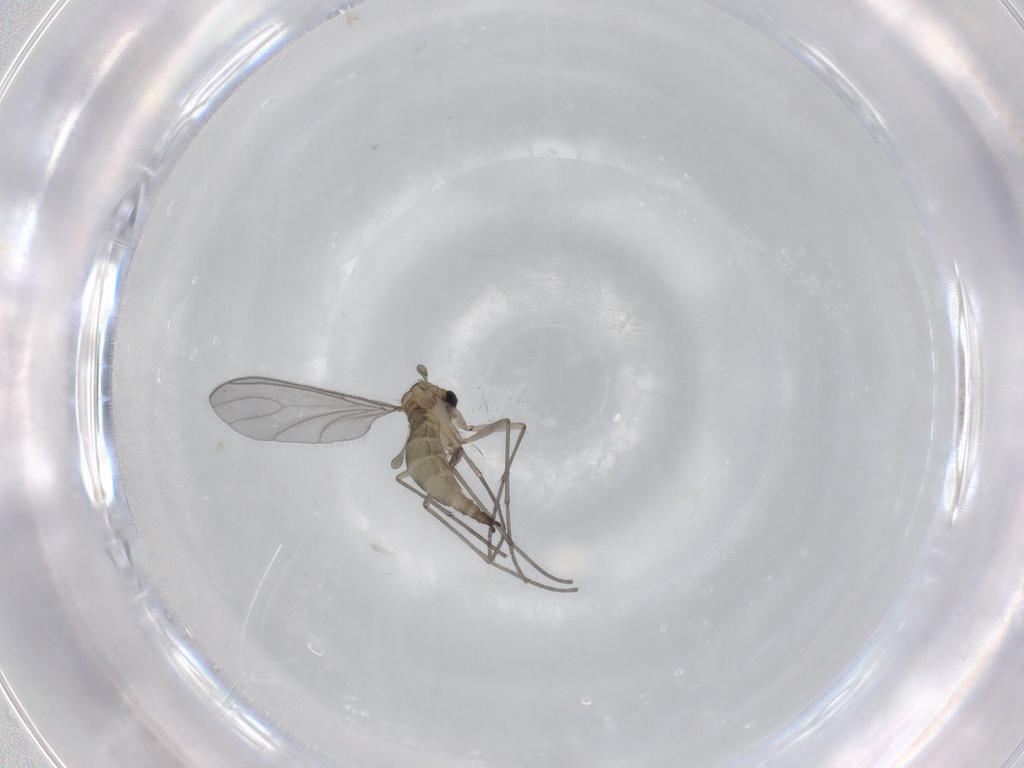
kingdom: Animalia
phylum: Arthropoda
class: Insecta
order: Diptera
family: Sciaridae
